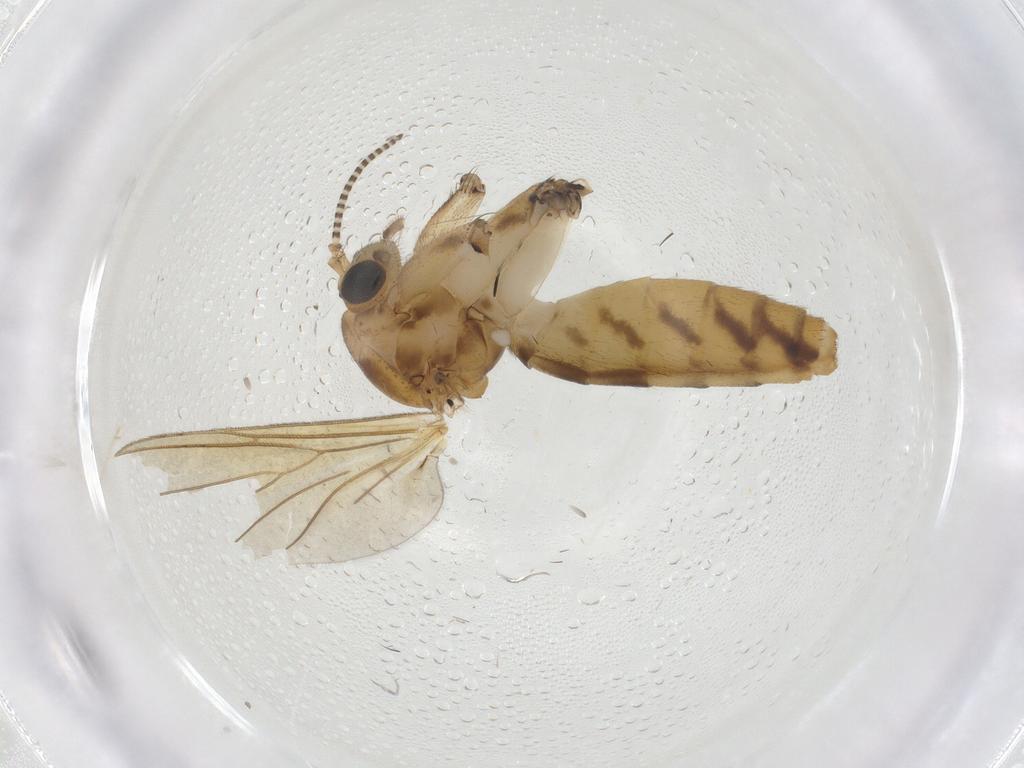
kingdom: Animalia
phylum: Arthropoda
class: Insecta
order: Diptera
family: Mycetophilidae
